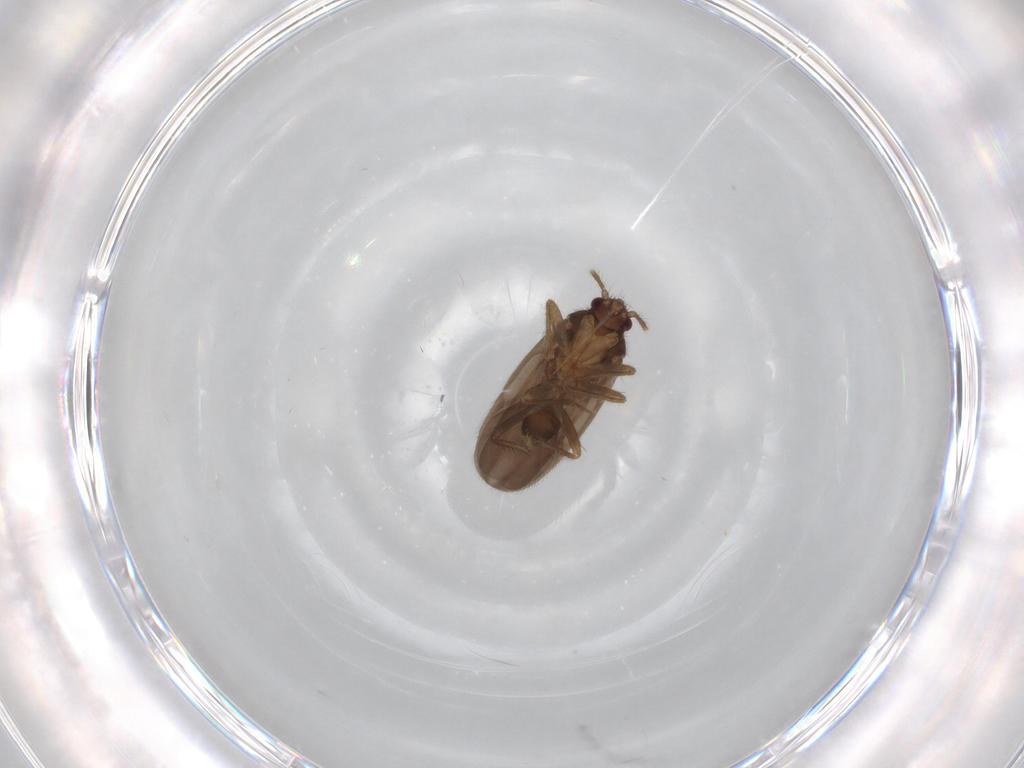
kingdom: Animalia
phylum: Arthropoda
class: Insecta
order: Hemiptera
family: Ceratocombidae
